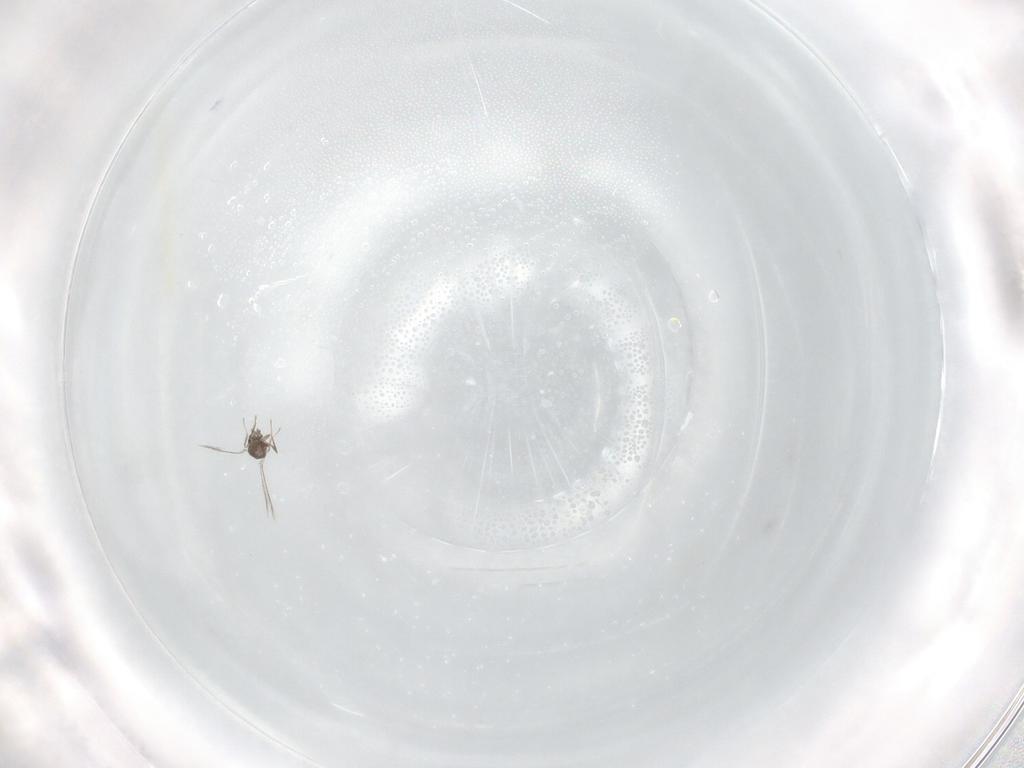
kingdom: Animalia
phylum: Arthropoda
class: Insecta
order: Hymenoptera
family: Mymaridae
